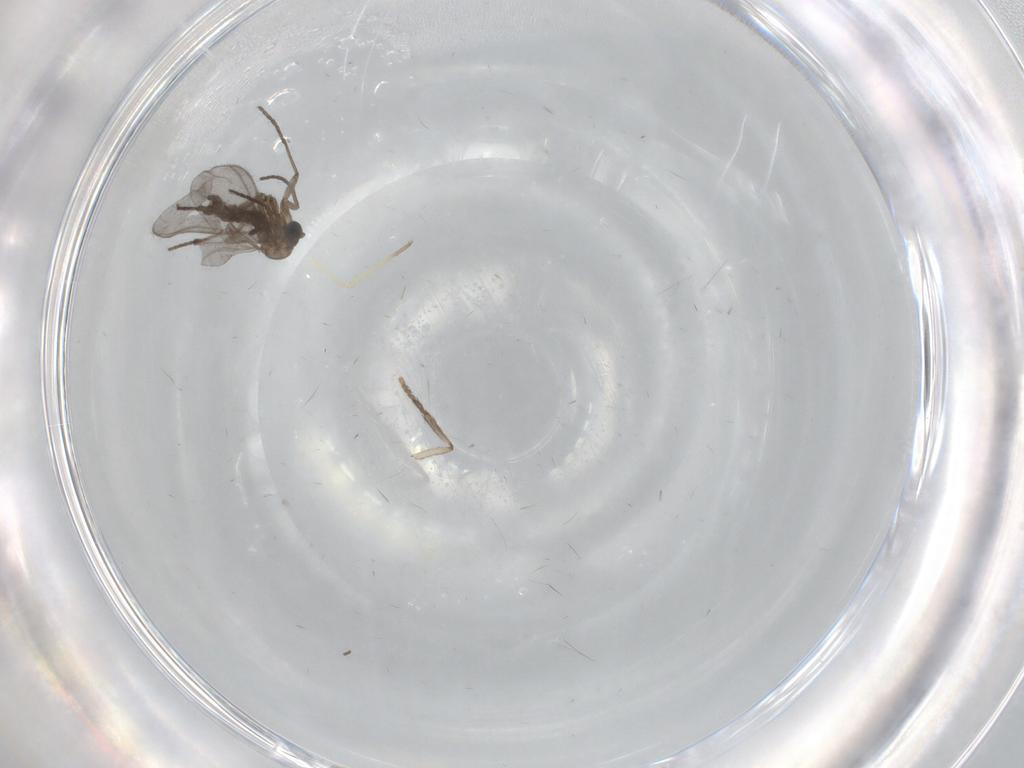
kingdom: Animalia
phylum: Arthropoda
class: Insecta
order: Diptera
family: Sciaridae
